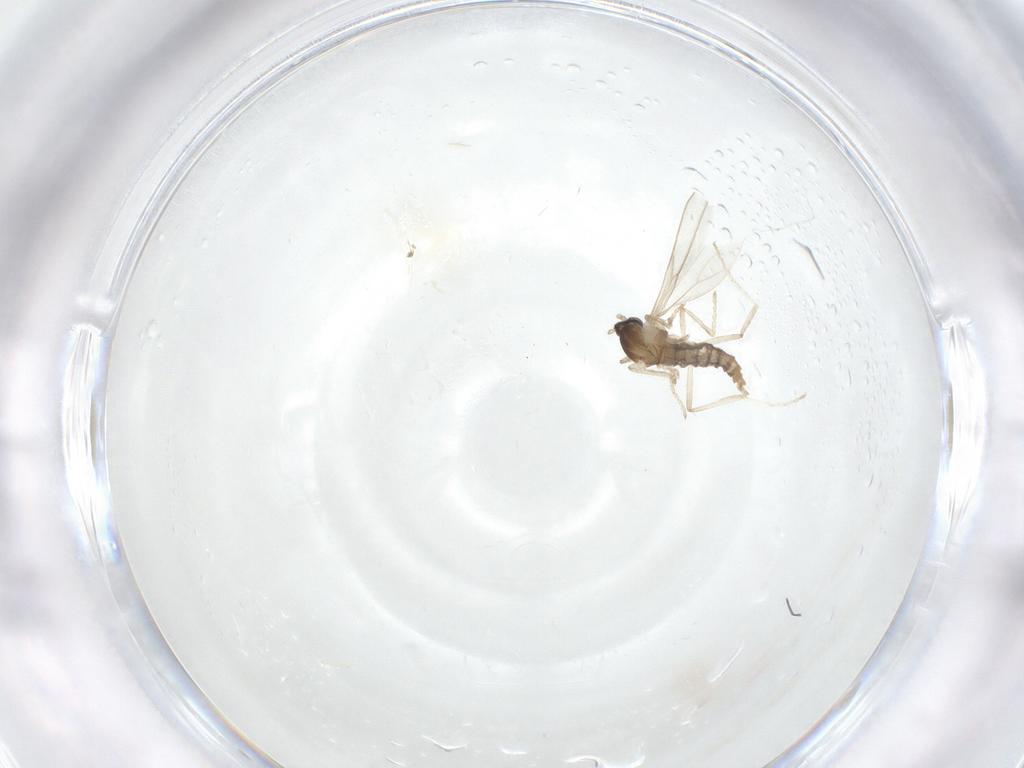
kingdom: Animalia
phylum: Arthropoda
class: Insecta
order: Diptera
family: Cecidomyiidae
